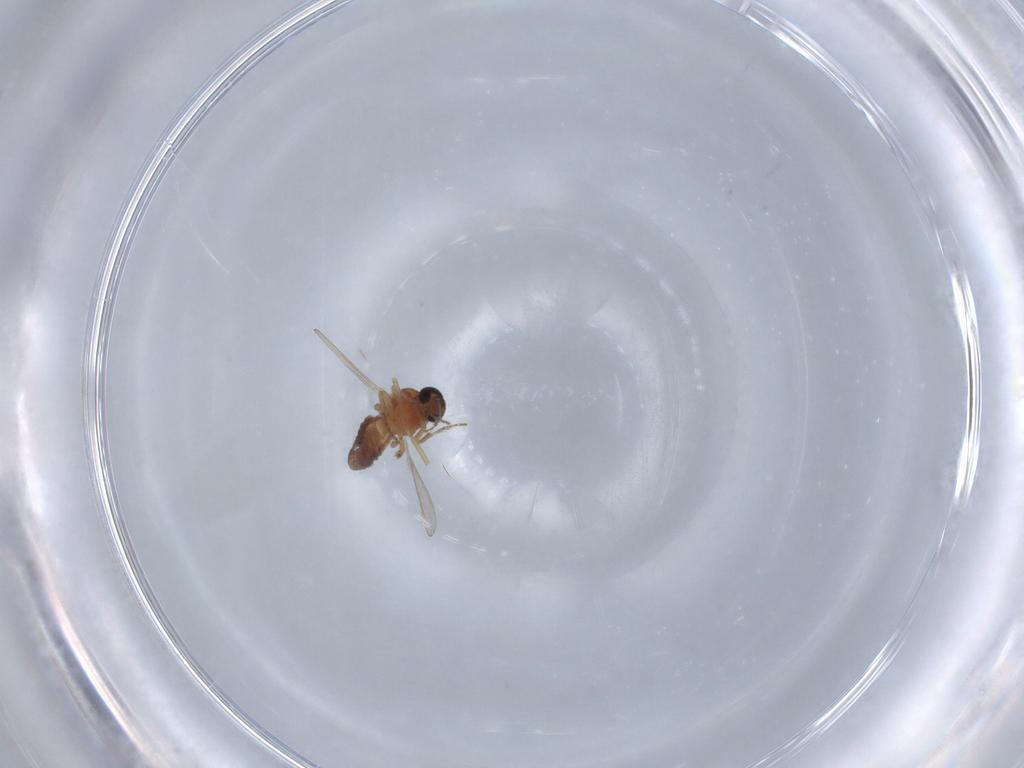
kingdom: Animalia
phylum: Arthropoda
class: Insecta
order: Diptera
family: Ceratopogonidae
